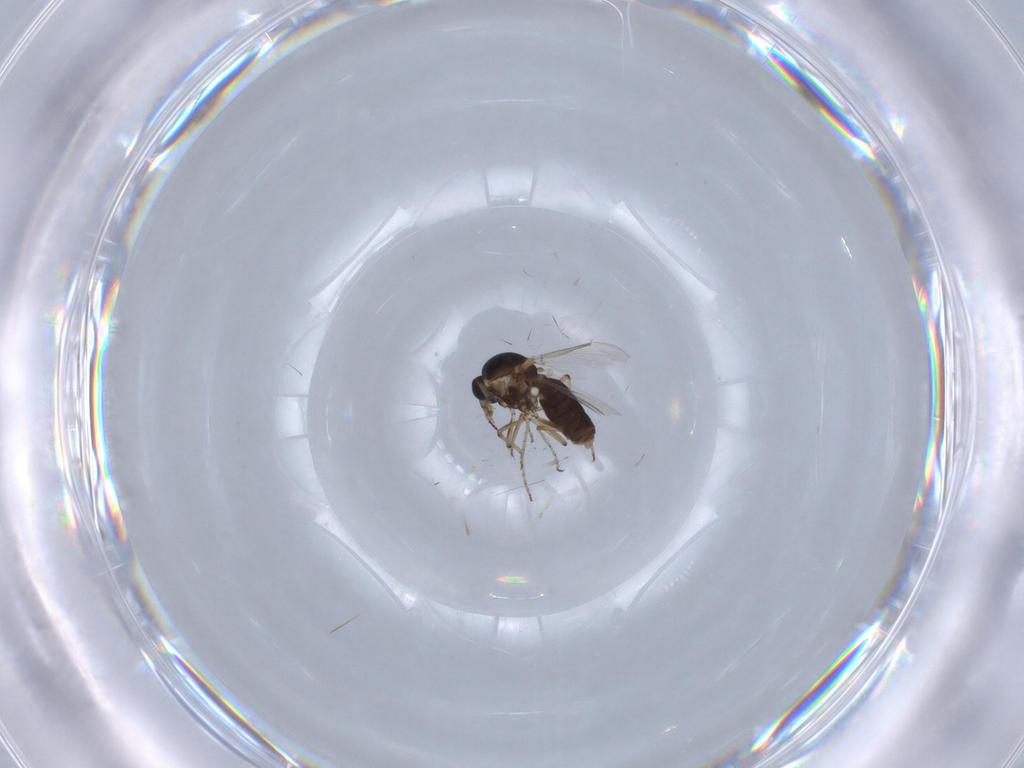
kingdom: Animalia
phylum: Arthropoda
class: Insecta
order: Diptera
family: Ceratopogonidae
